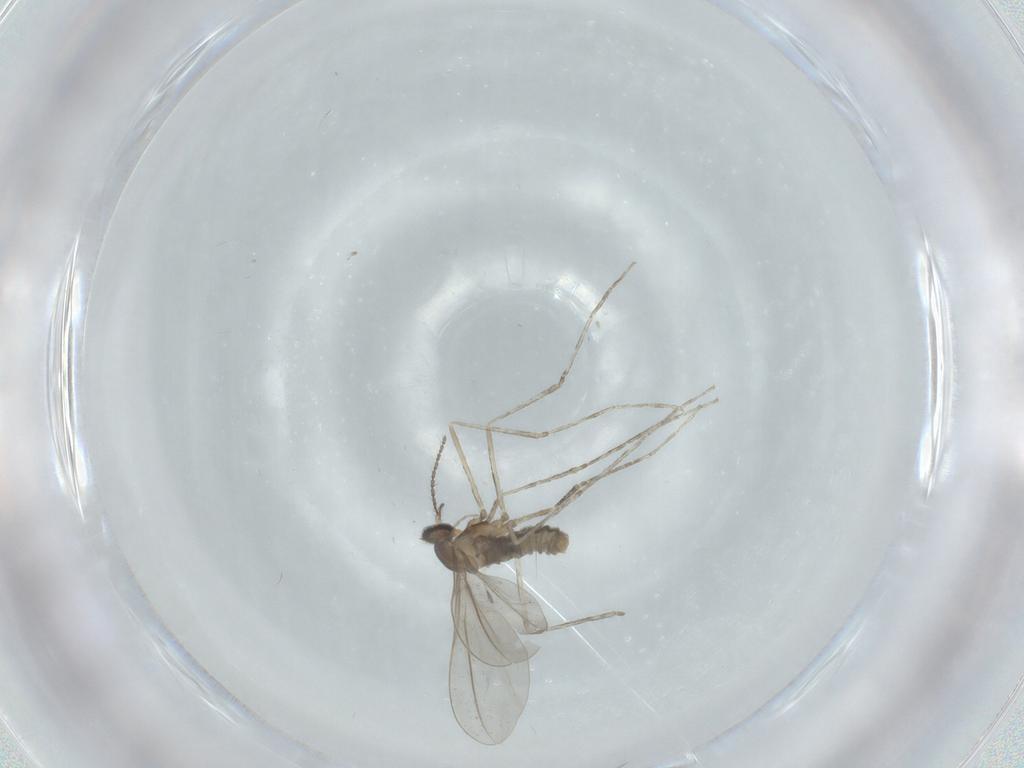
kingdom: Animalia
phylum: Arthropoda
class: Insecta
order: Diptera
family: Cecidomyiidae
